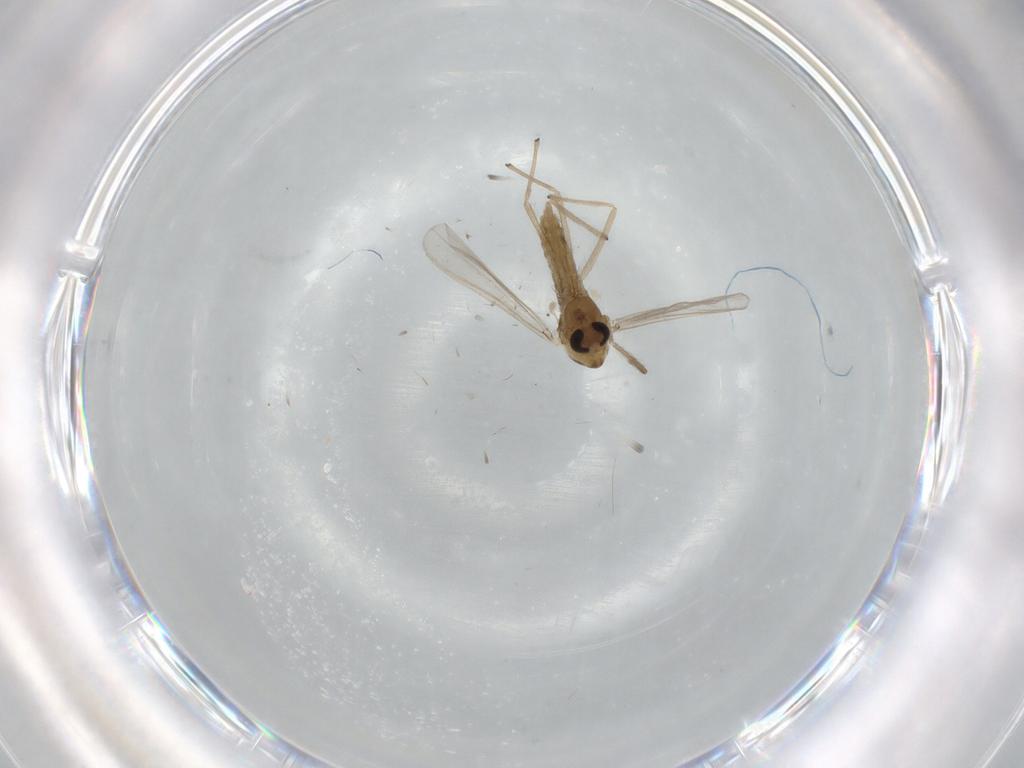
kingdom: Animalia
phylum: Arthropoda
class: Insecta
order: Diptera
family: Chironomidae
